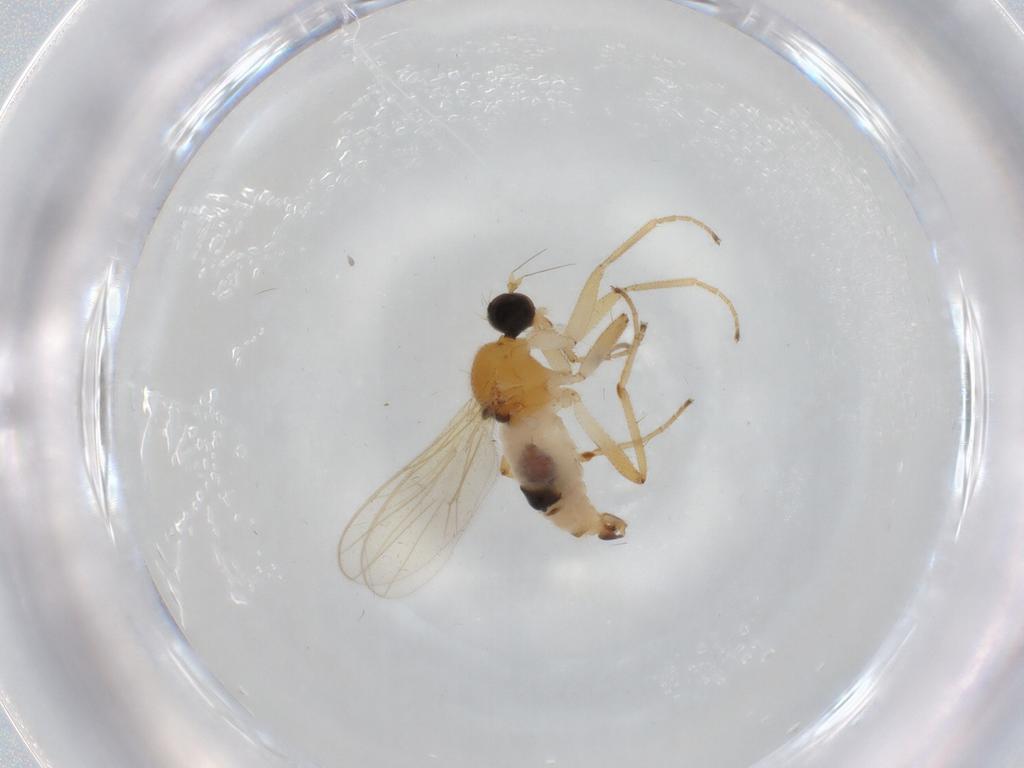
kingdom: Animalia
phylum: Arthropoda
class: Insecta
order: Diptera
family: Hybotidae
